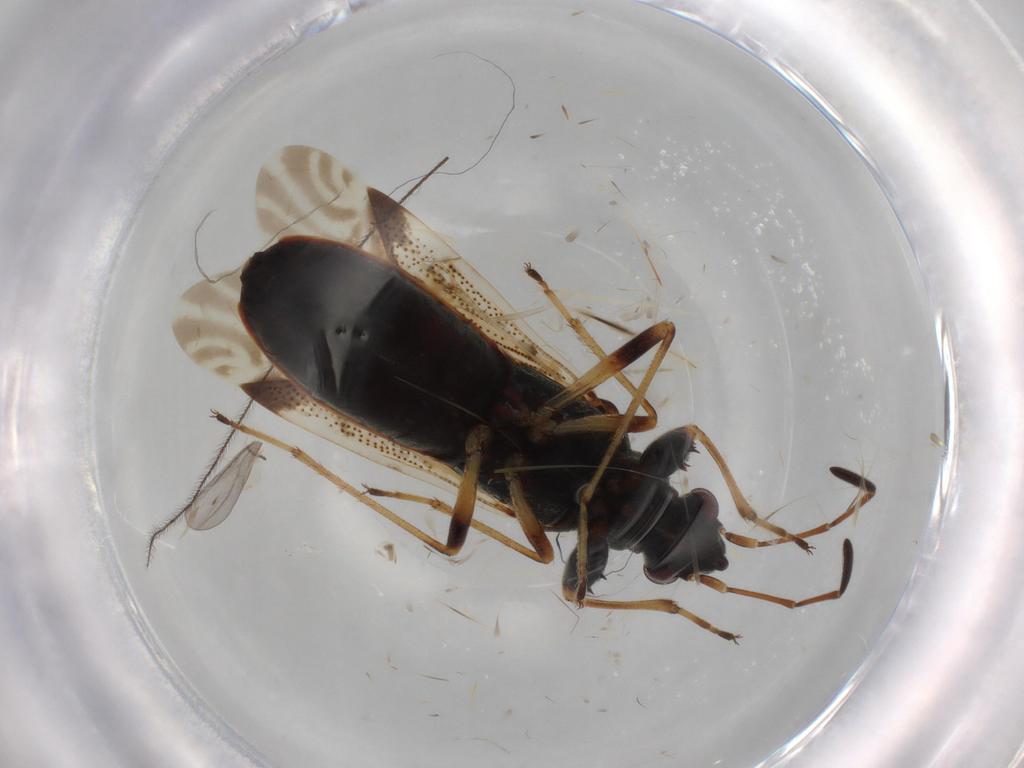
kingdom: Animalia
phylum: Arthropoda
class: Insecta
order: Hemiptera
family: Rhyparochromidae
